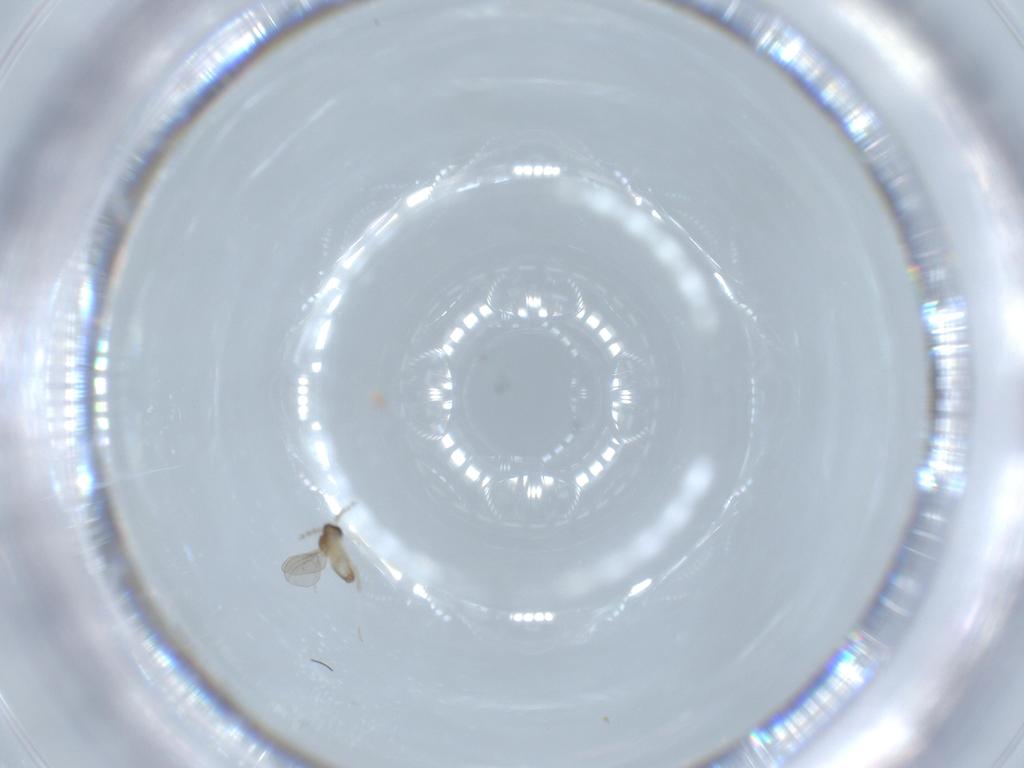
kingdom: Animalia
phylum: Arthropoda
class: Insecta
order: Diptera
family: Cecidomyiidae
